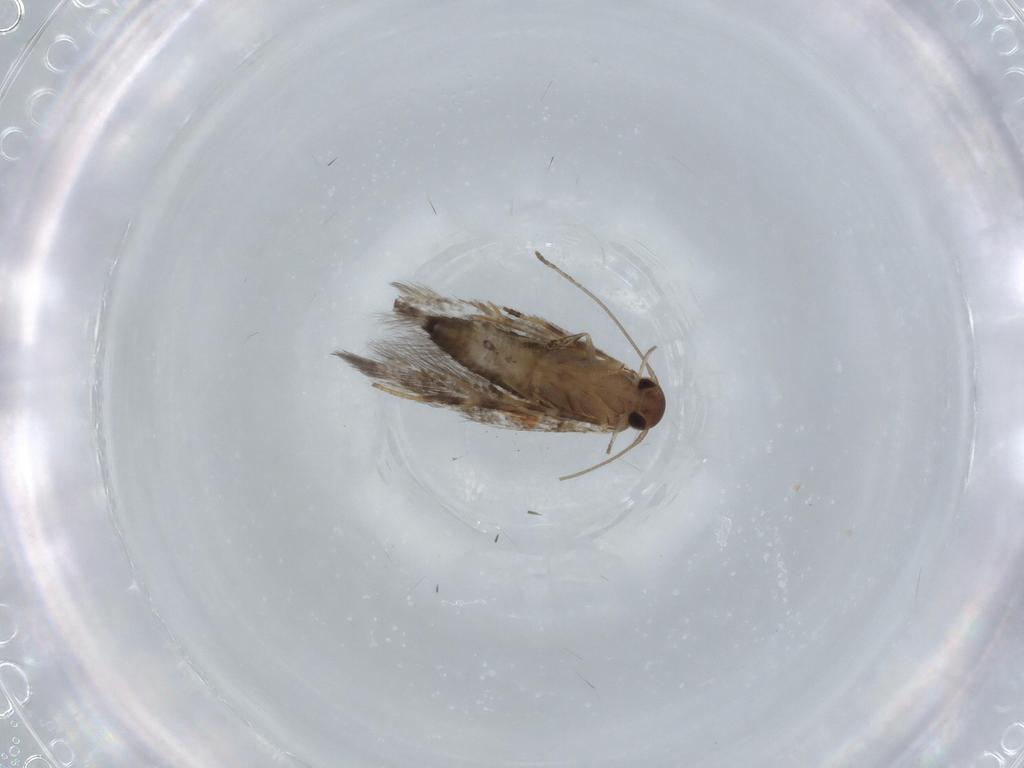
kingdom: Animalia
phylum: Arthropoda
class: Insecta
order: Lepidoptera
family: Cosmopterigidae
